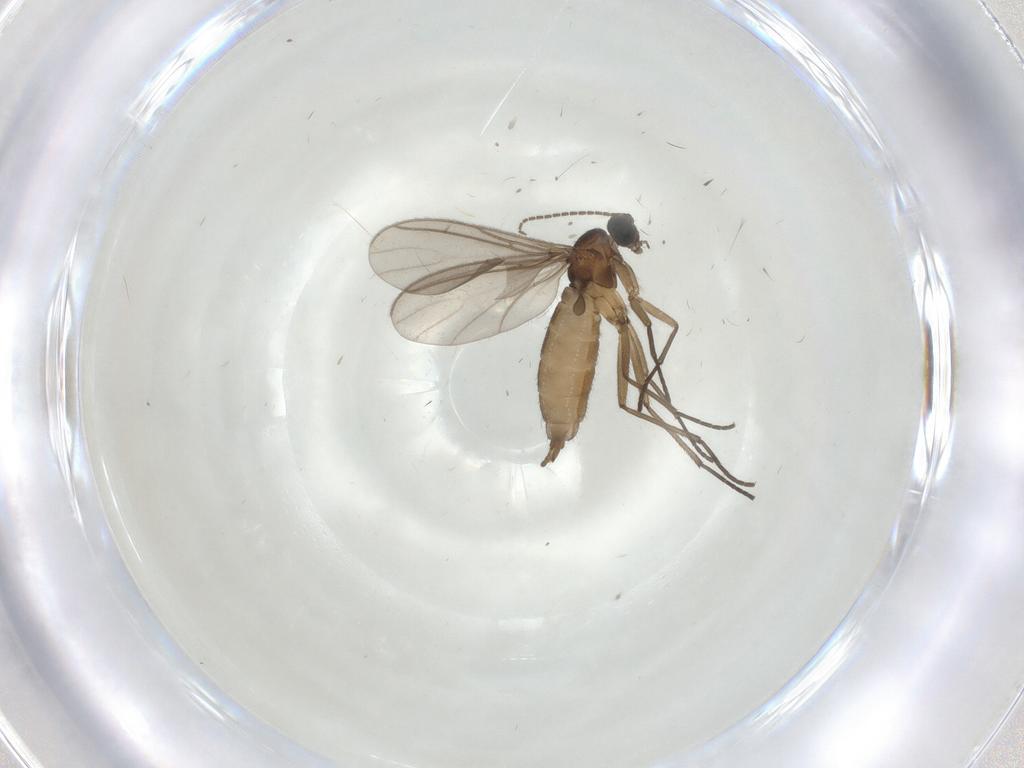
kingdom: Animalia
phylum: Arthropoda
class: Insecta
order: Diptera
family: Sciaridae
